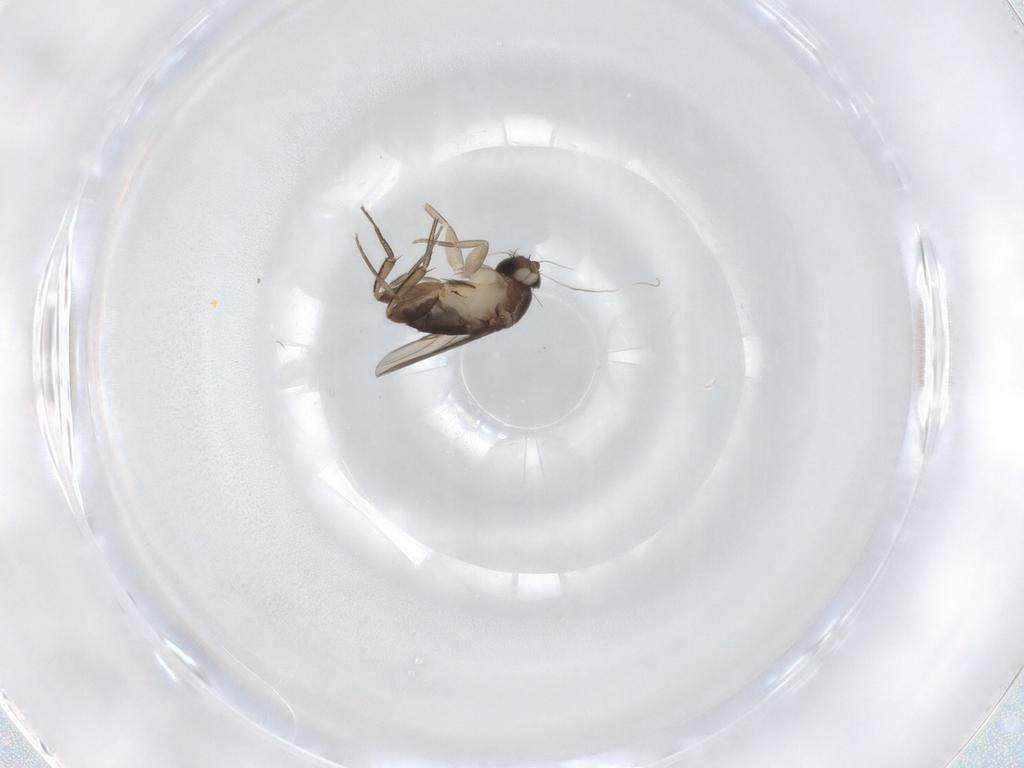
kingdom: Animalia
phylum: Arthropoda
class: Insecta
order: Diptera
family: Phoridae
